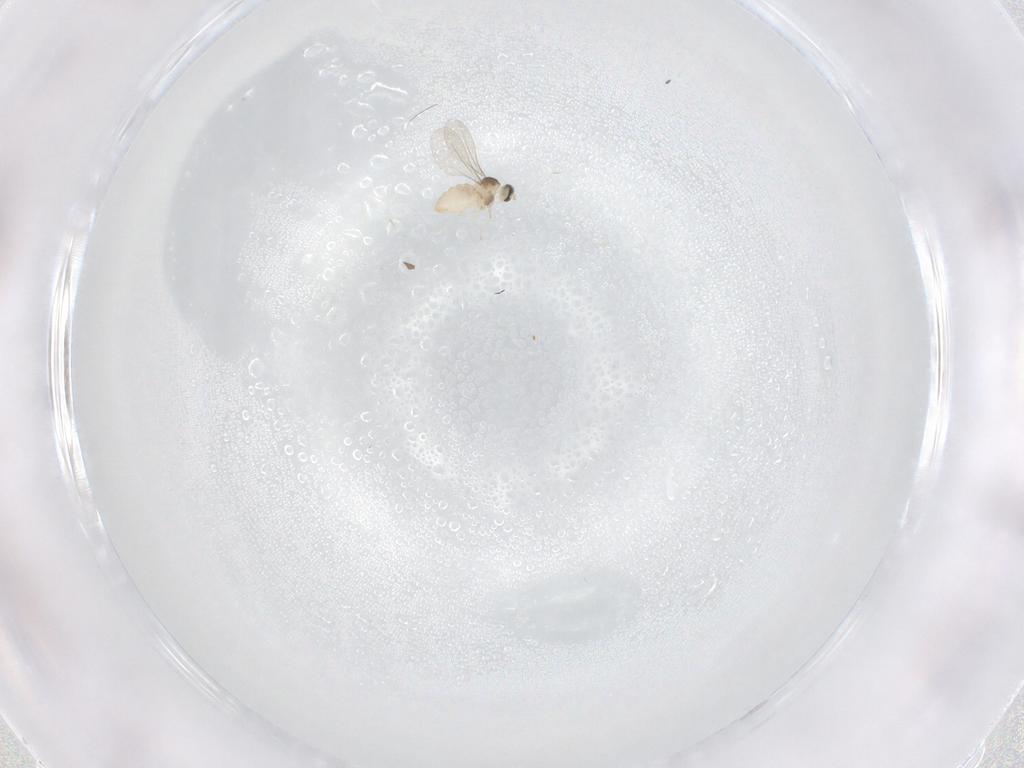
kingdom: Animalia
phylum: Arthropoda
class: Insecta
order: Diptera
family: Cecidomyiidae
